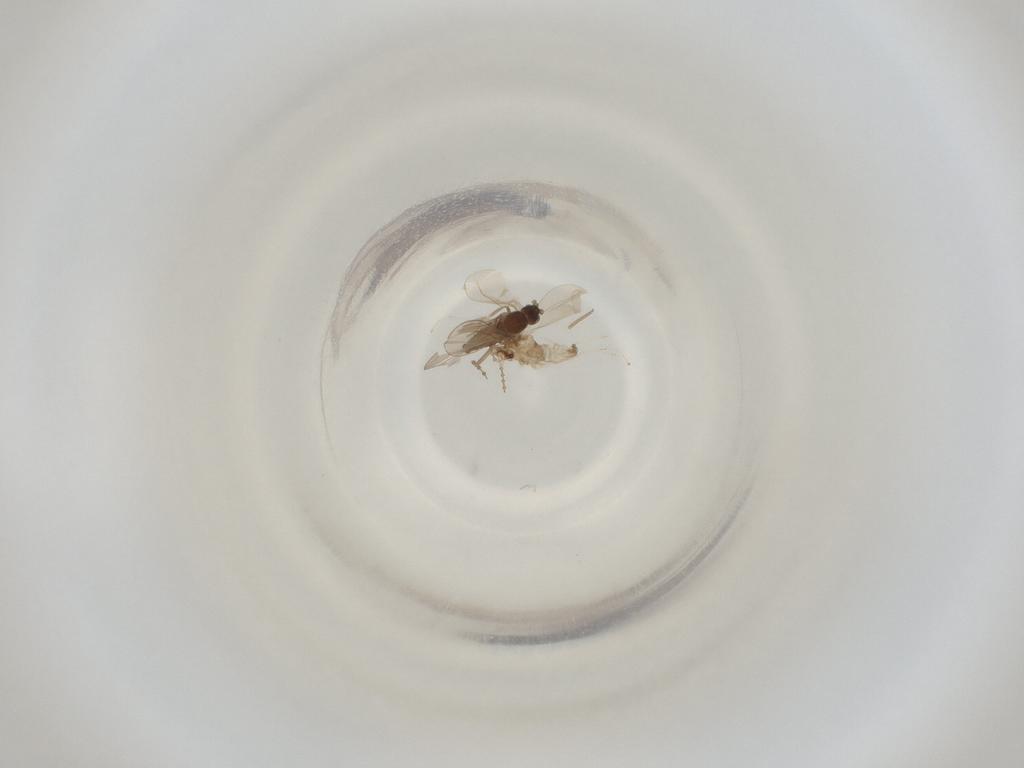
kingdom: Animalia
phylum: Arthropoda
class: Insecta
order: Diptera
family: Cecidomyiidae
